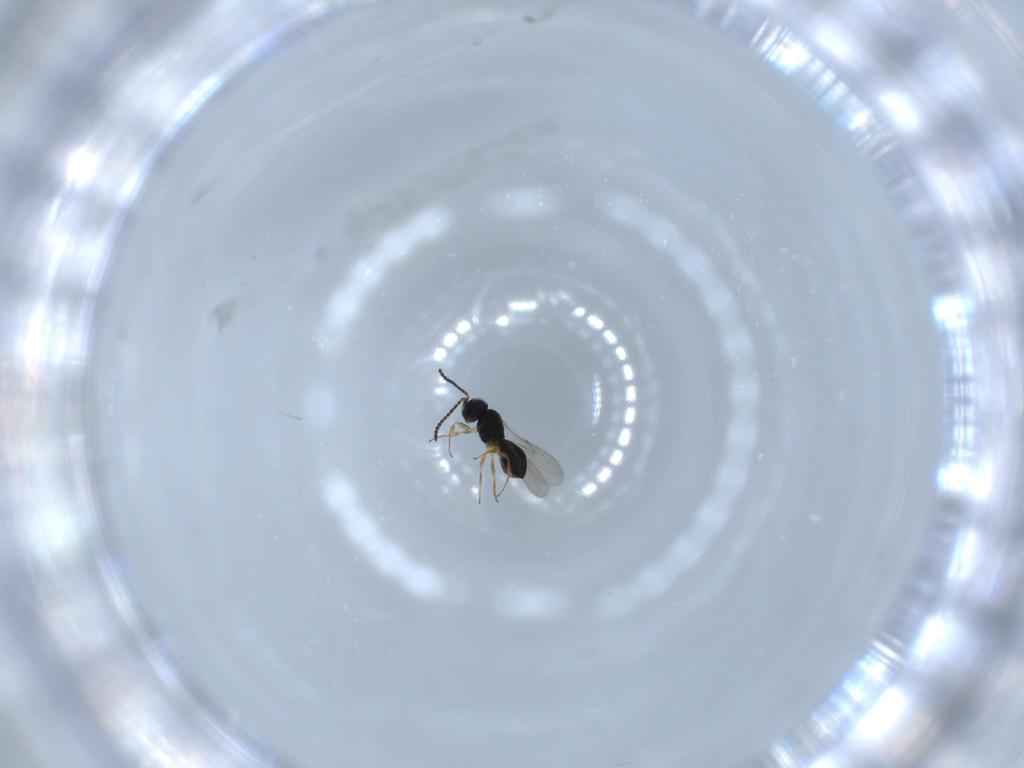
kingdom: Animalia
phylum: Arthropoda
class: Insecta
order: Hymenoptera
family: Scelionidae
